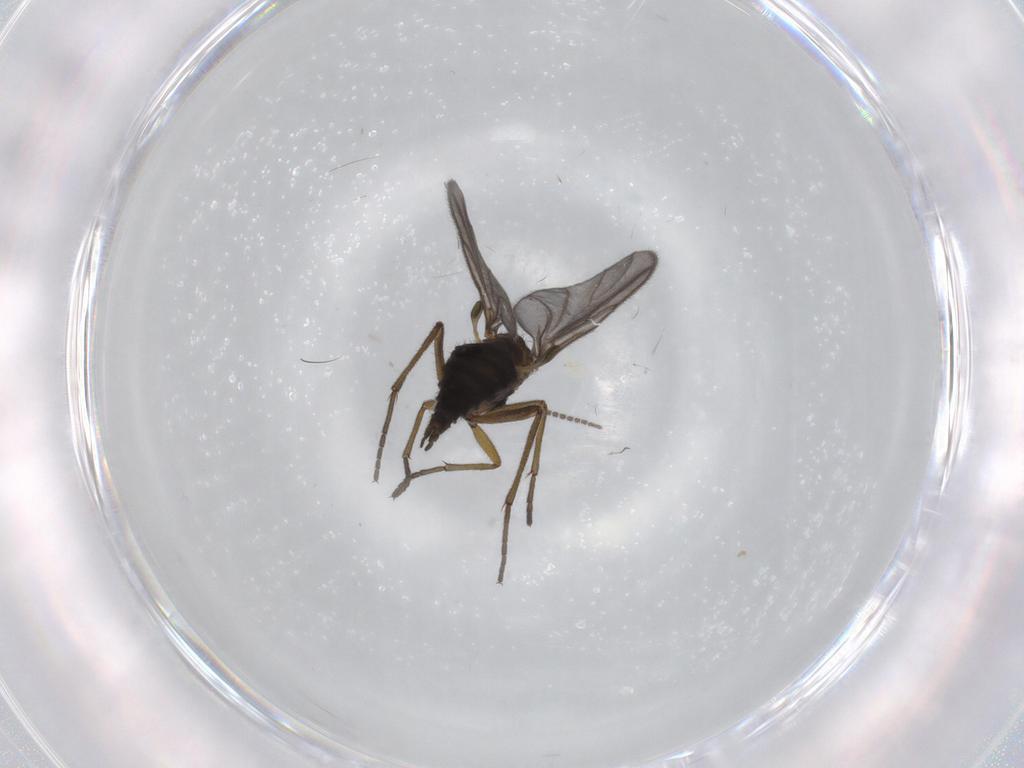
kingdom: Animalia
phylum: Arthropoda
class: Insecta
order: Diptera
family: Sciaridae
